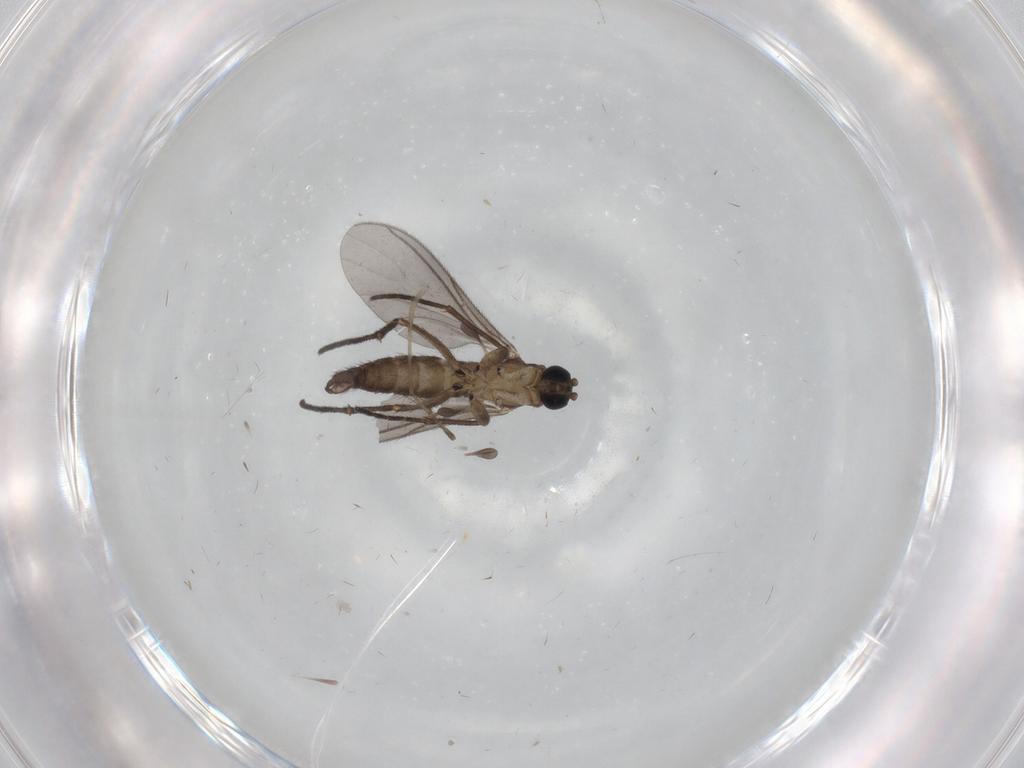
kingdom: Animalia
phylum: Arthropoda
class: Insecta
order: Diptera
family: Sciaridae
